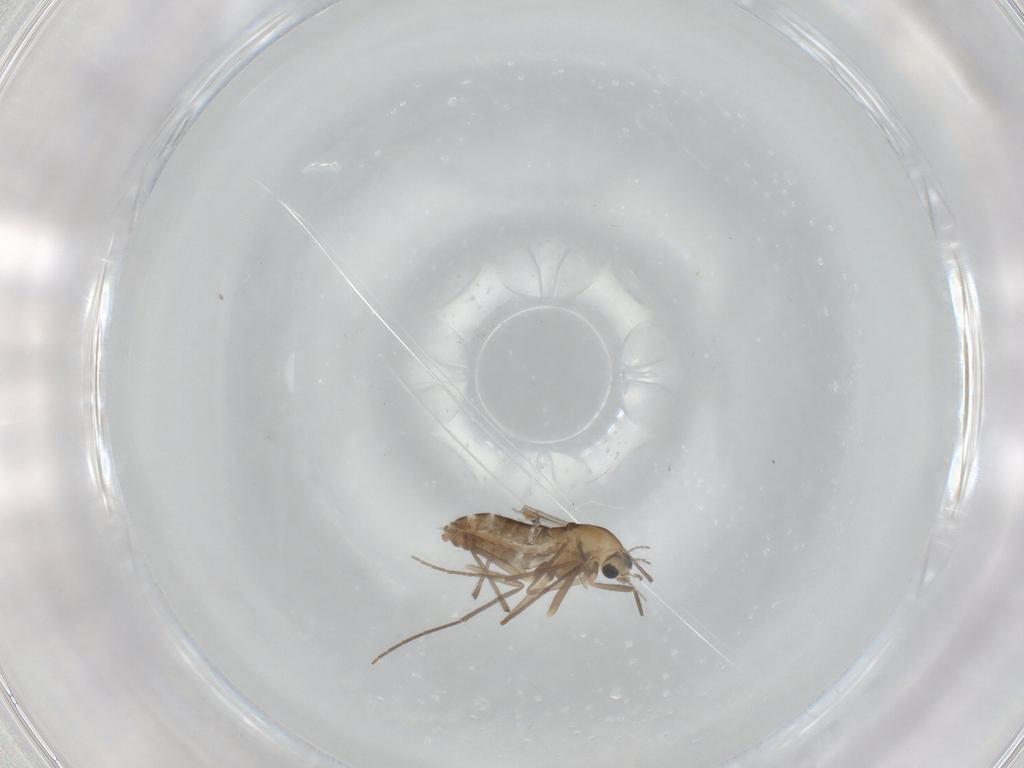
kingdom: Animalia
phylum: Arthropoda
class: Insecta
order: Diptera
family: Chironomidae
